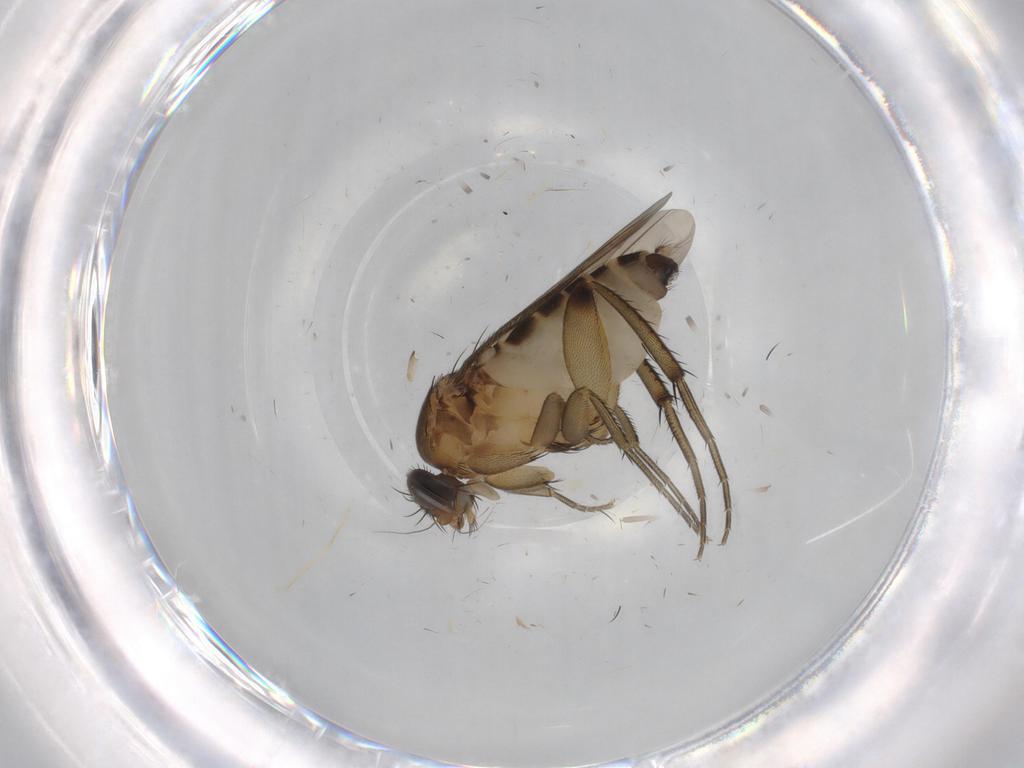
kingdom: Animalia
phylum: Arthropoda
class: Insecta
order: Diptera
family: Phoridae
